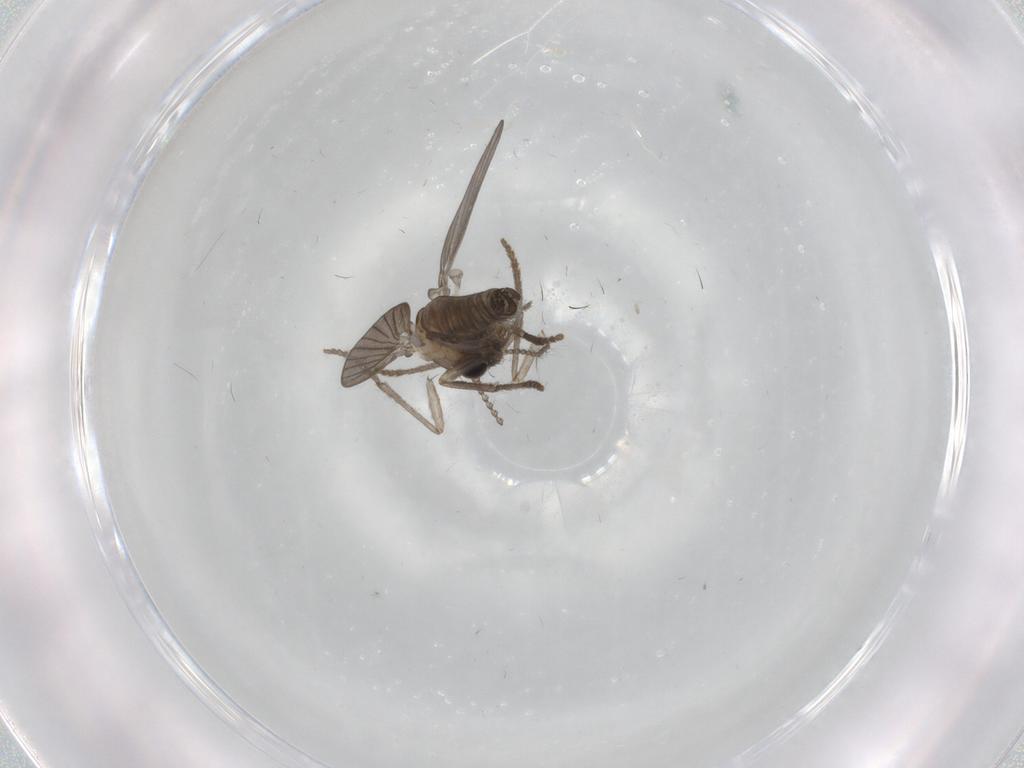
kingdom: Animalia
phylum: Arthropoda
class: Insecta
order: Diptera
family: Psychodidae
